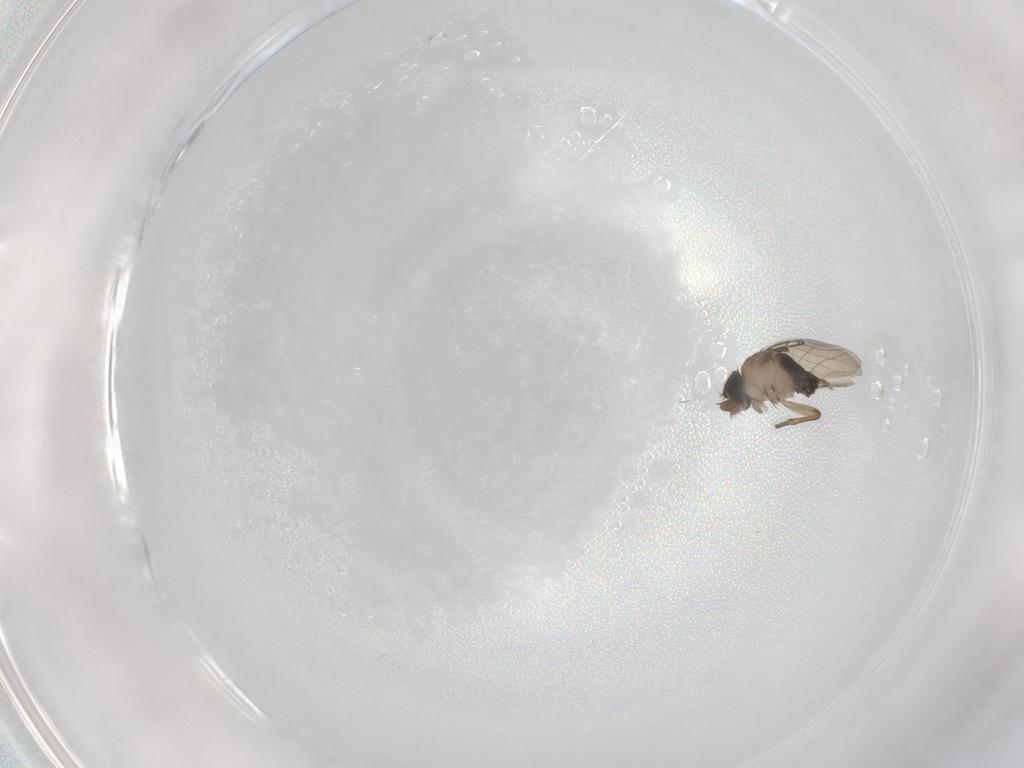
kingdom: Animalia
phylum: Arthropoda
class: Insecta
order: Diptera
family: Phoridae
